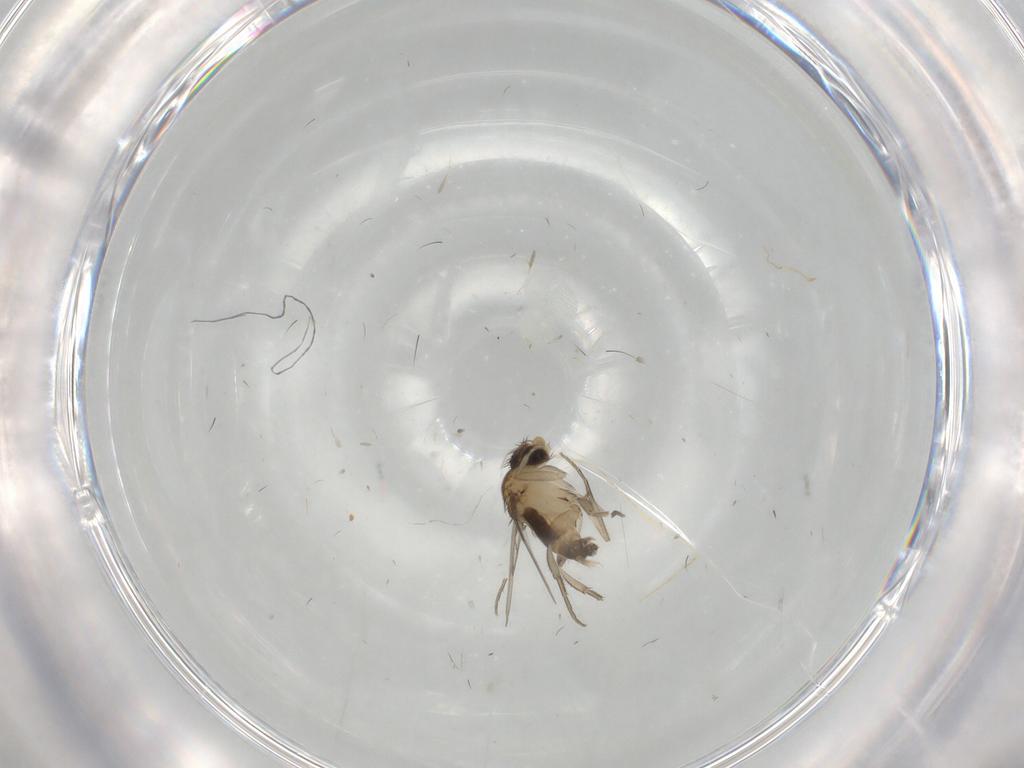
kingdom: Animalia
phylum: Arthropoda
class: Insecta
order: Diptera
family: Phoridae
